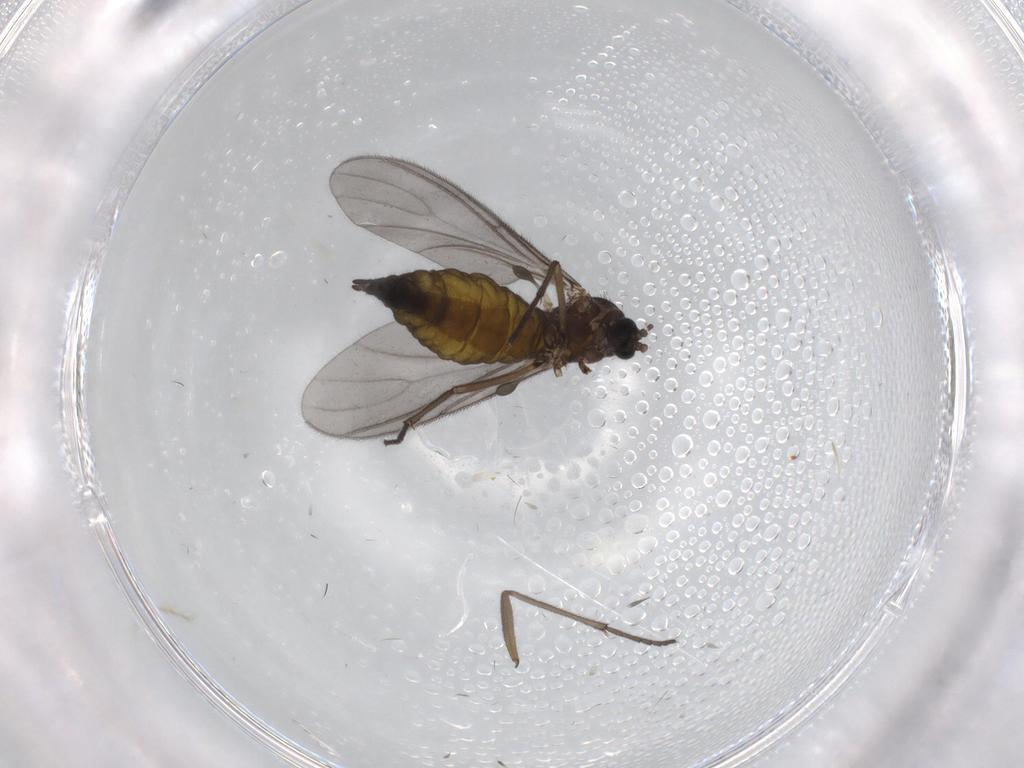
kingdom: Animalia
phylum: Arthropoda
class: Insecta
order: Diptera
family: Sciaridae
